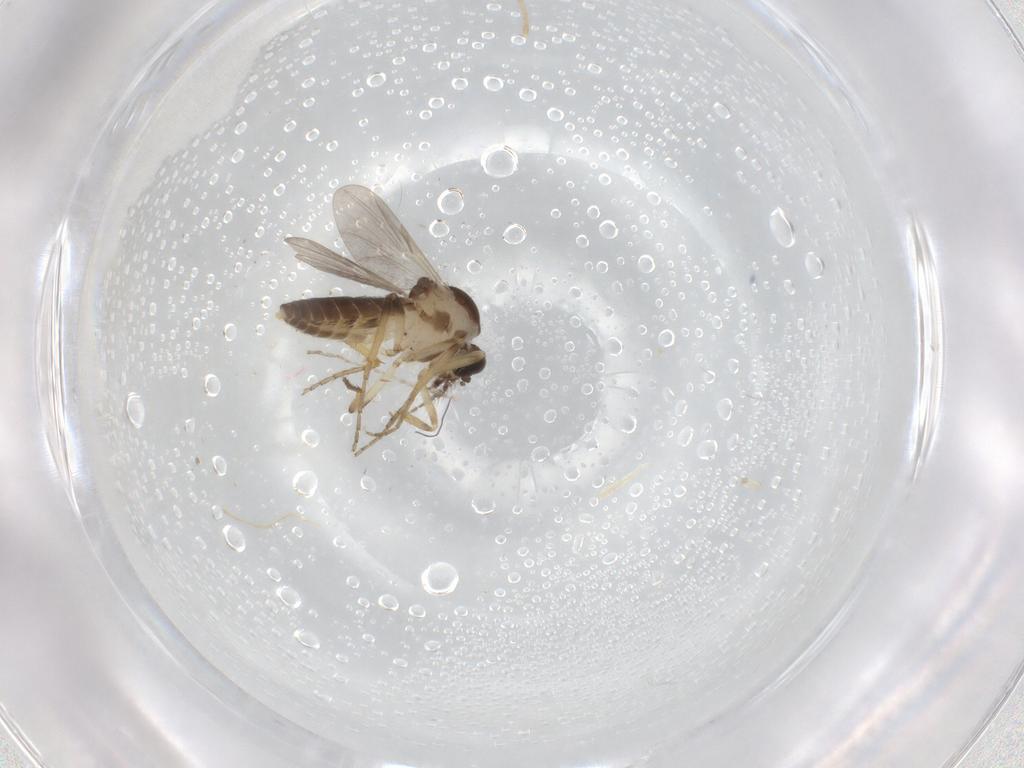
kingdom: Animalia
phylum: Arthropoda
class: Insecta
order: Diptera
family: Ceratopogonidae
